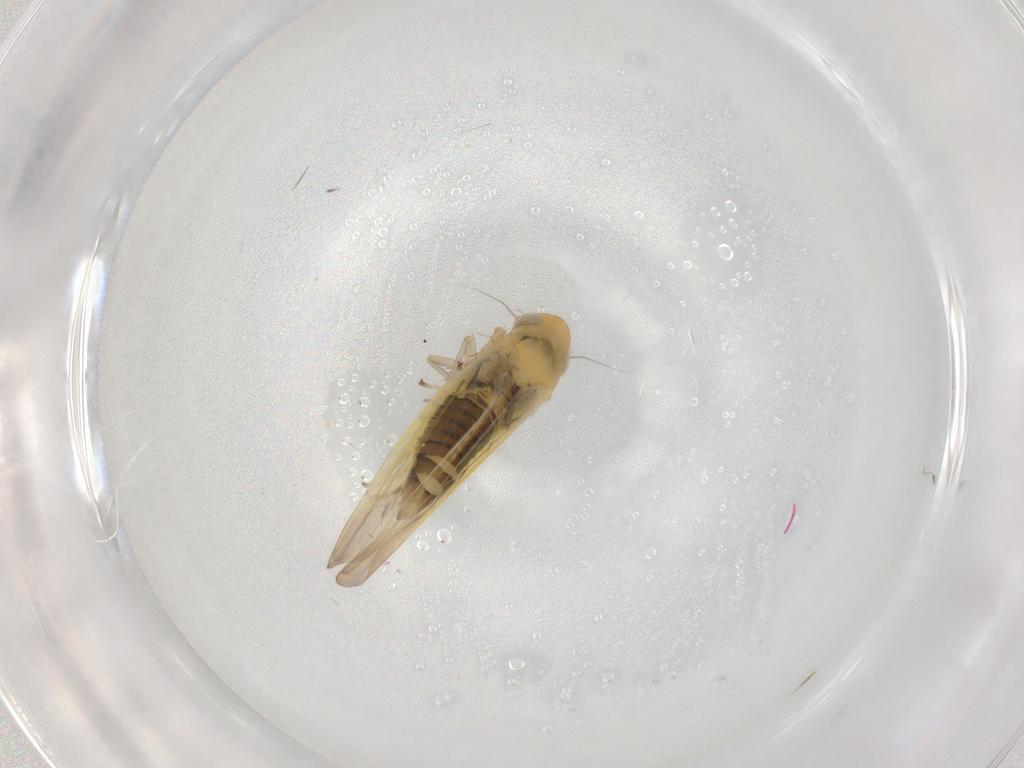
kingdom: Animalia
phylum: Arthropoda
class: Insecta
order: Hemiptera
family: Cicadellidae
